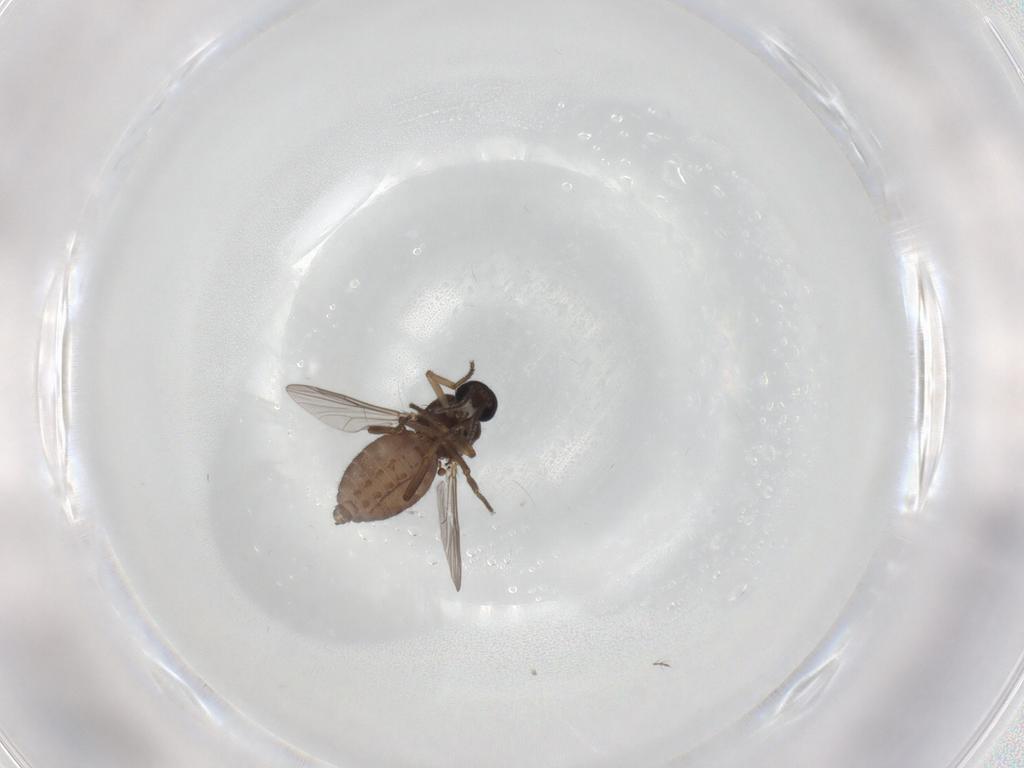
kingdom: Animalia
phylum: Arthropoda
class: Insecta
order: Diptera
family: Ceratopogonidae
